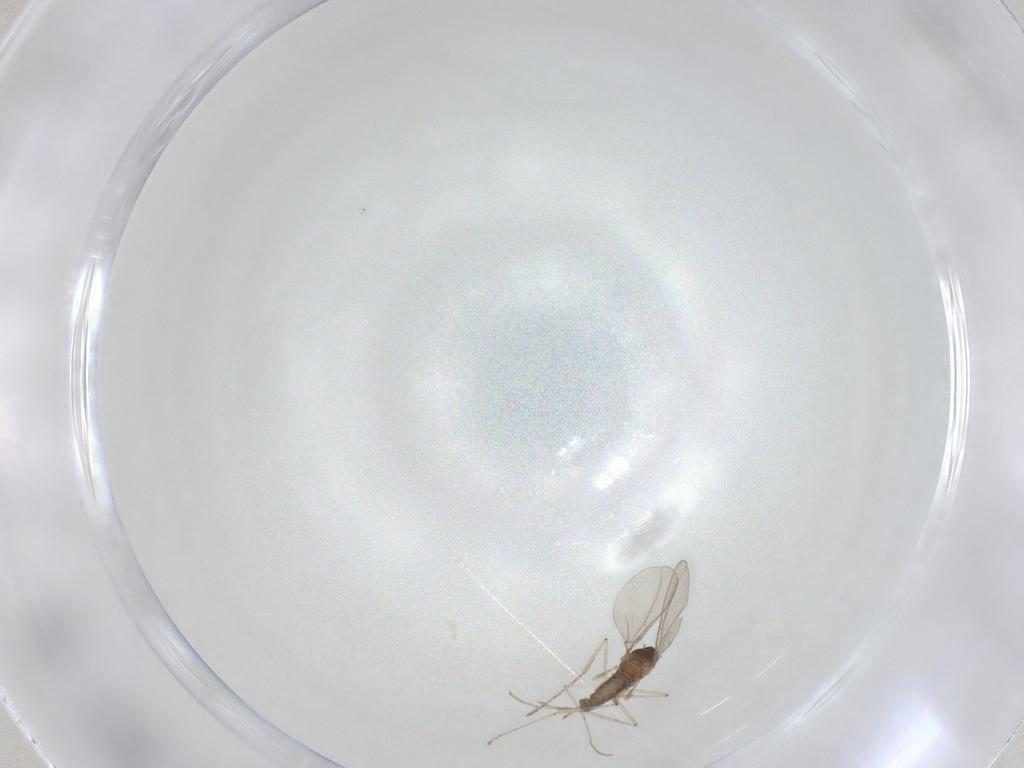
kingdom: Animalia
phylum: Arthropoda
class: Insecta
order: Diptera
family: Cecidomyiidae
